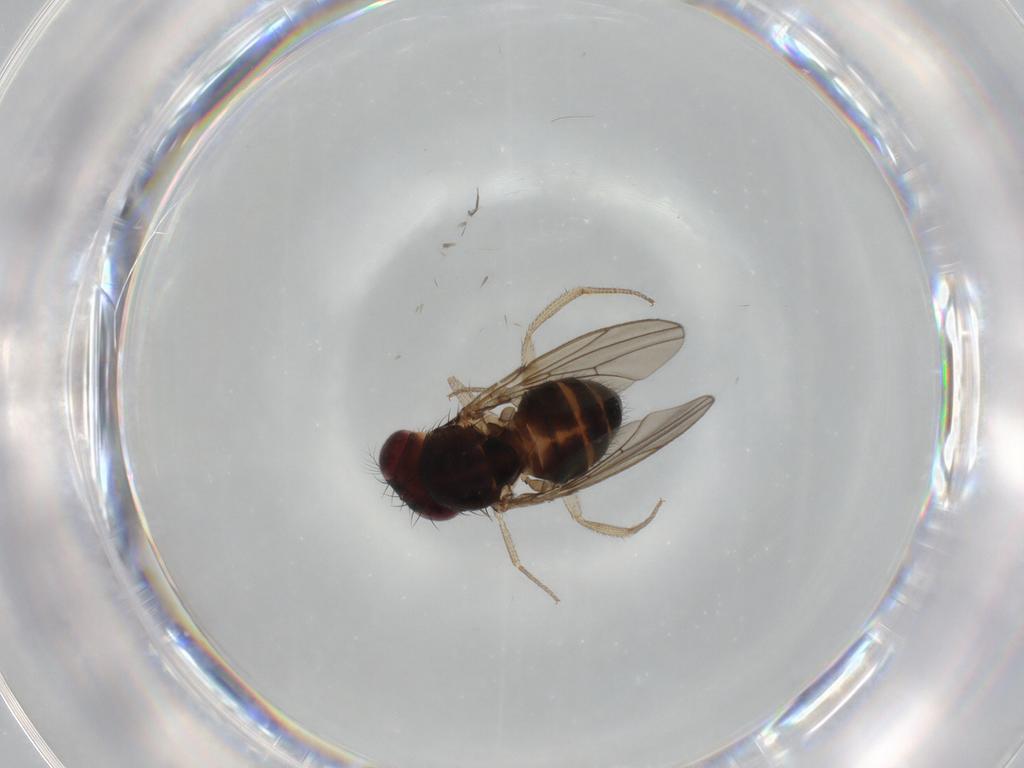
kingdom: Animalia
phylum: Arthropoda
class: Insecta
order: Diptera
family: Drosophilidae
